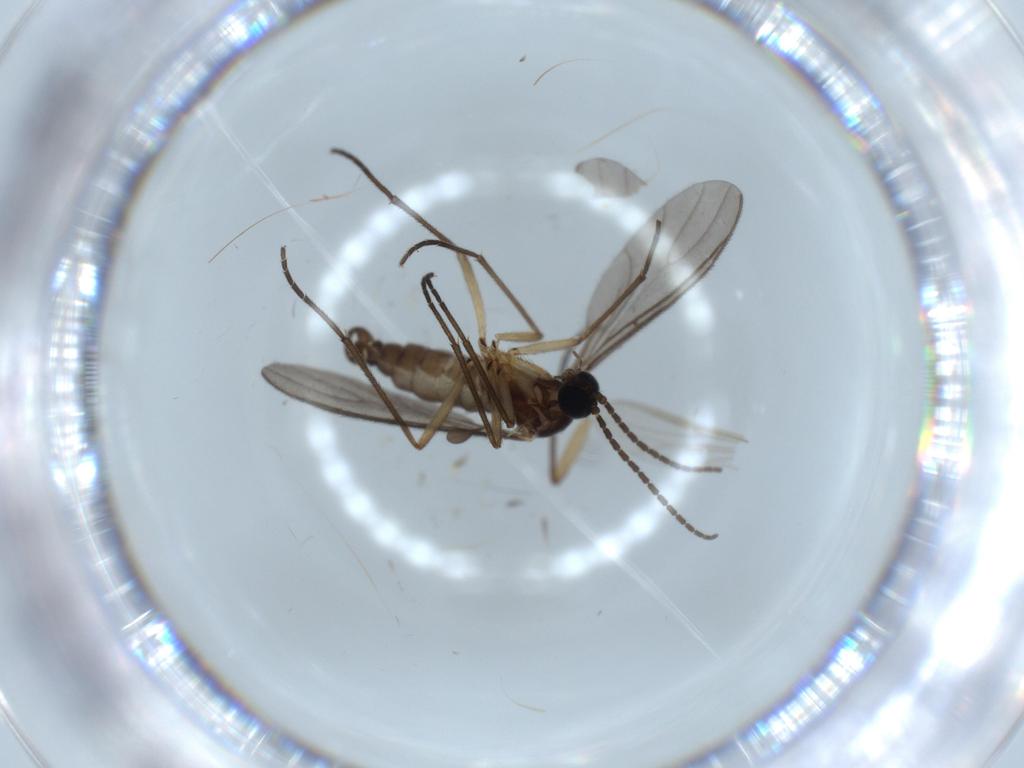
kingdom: Animalia
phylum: Arthropoda
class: Insecta
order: Diptera
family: Sciaridae
